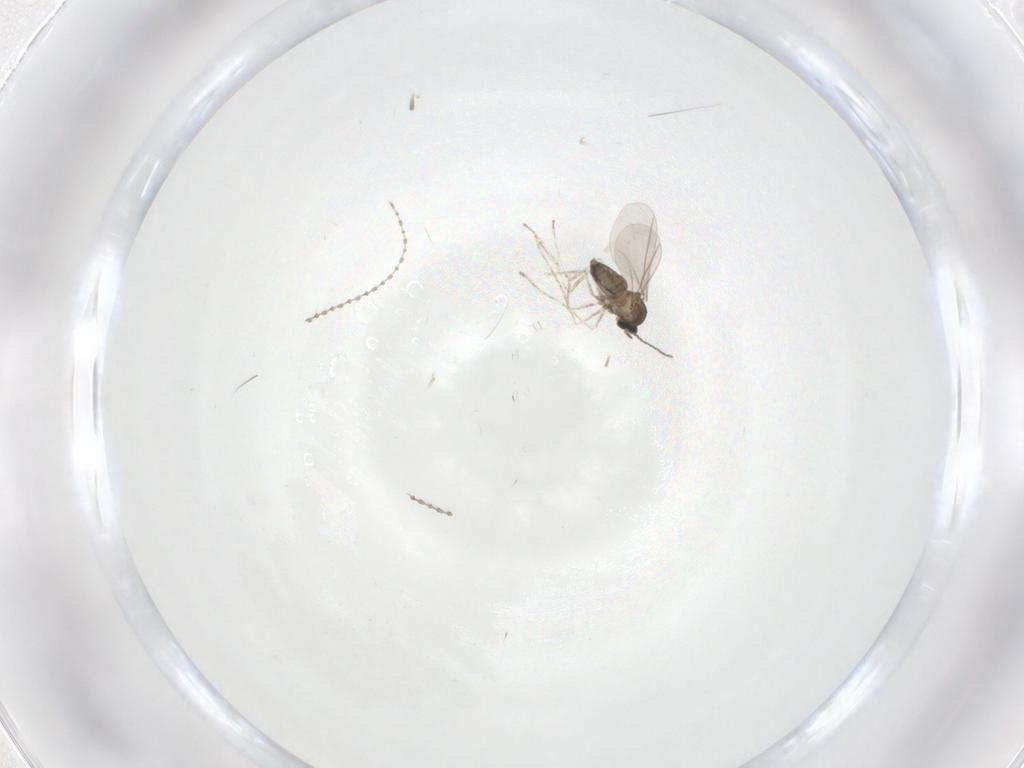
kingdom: Animalia
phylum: Arthropoda
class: Insecta
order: Diptera
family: Cecidomyiidae
